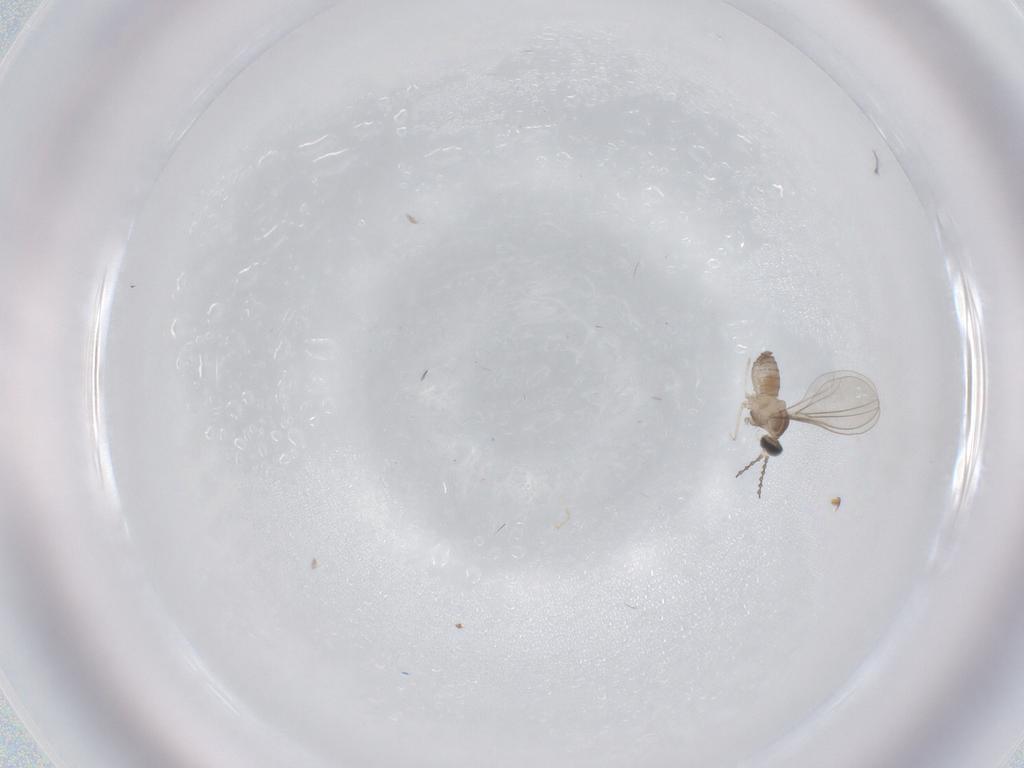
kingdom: Animalia
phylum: Arthropoda
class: Insecta
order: Diptera
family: Cecidomyiidae
